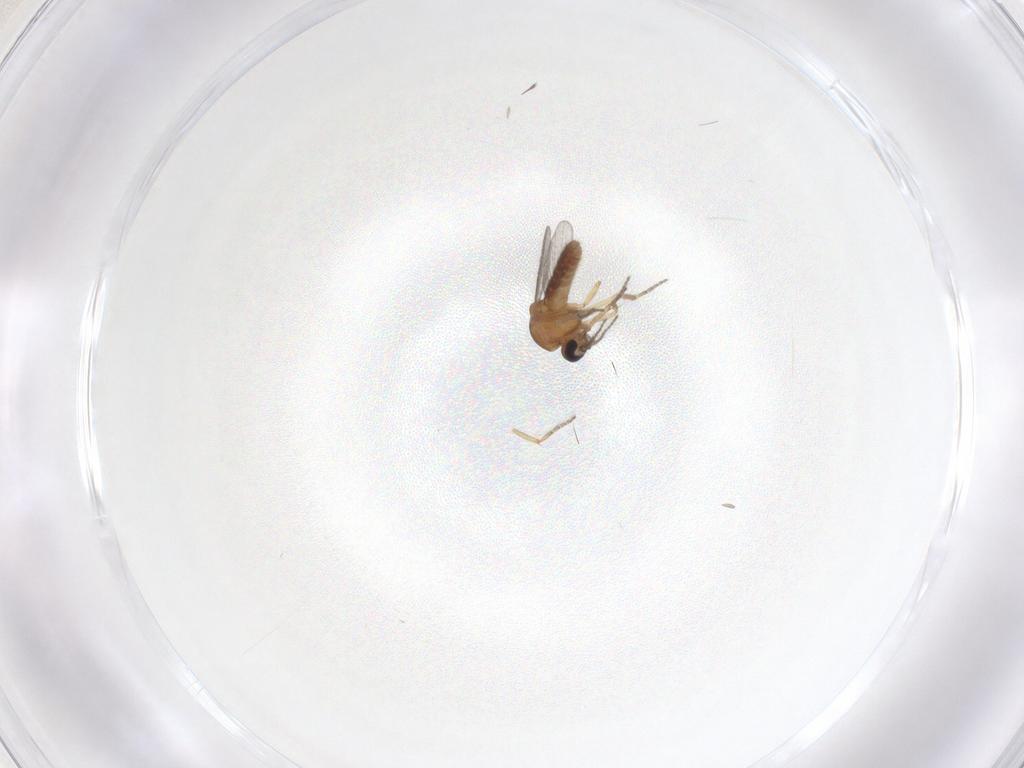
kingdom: Animalia
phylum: Arthropoda
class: Insecta
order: Diptera
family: Ceratopogonidae
